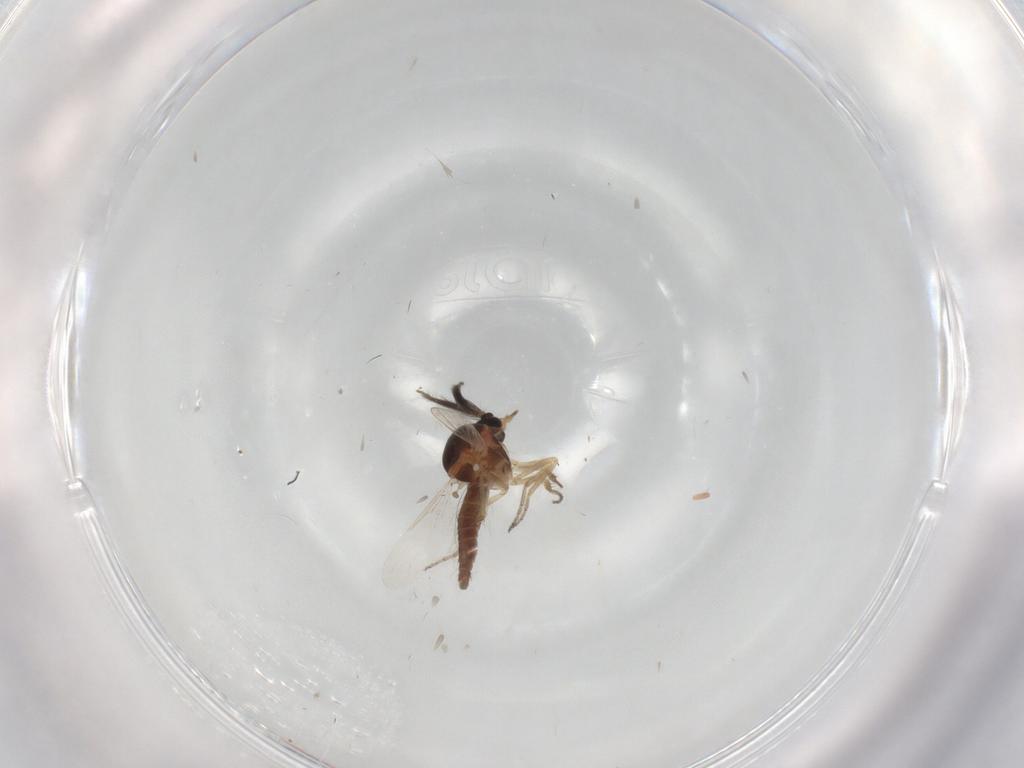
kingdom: Animalia
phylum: Arthropoda
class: Insecta
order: Diptera
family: Ceratopogonidae
